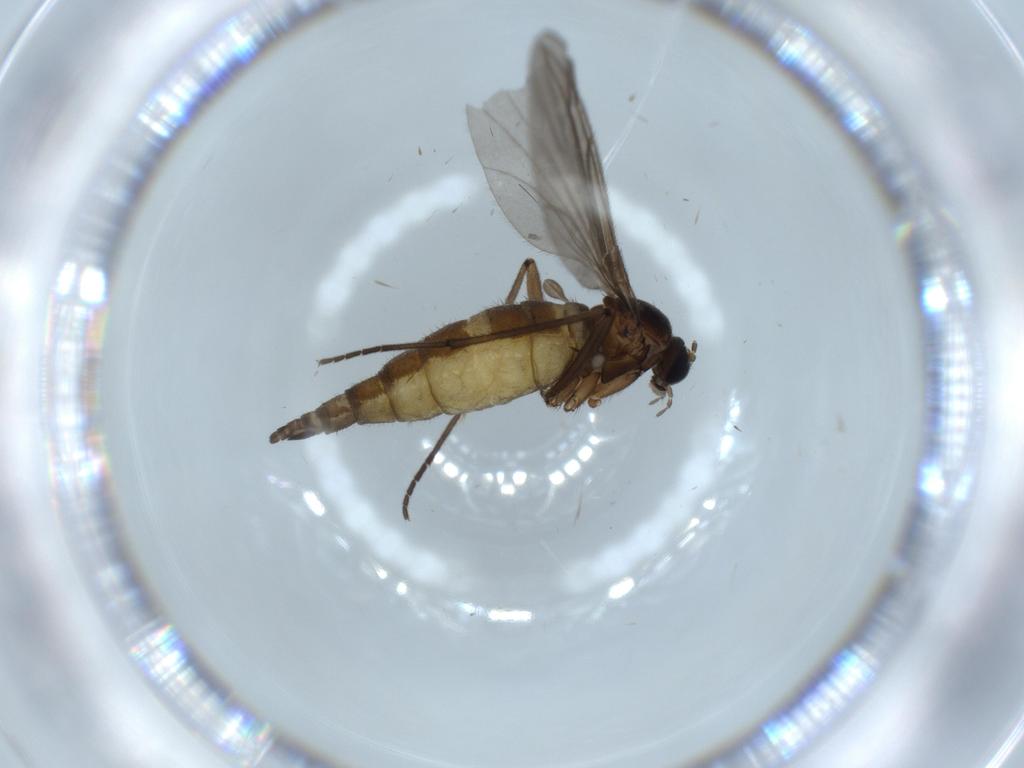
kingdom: Animalia
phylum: Arthropoda
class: Insecta
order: Diptera
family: Sciaridae
